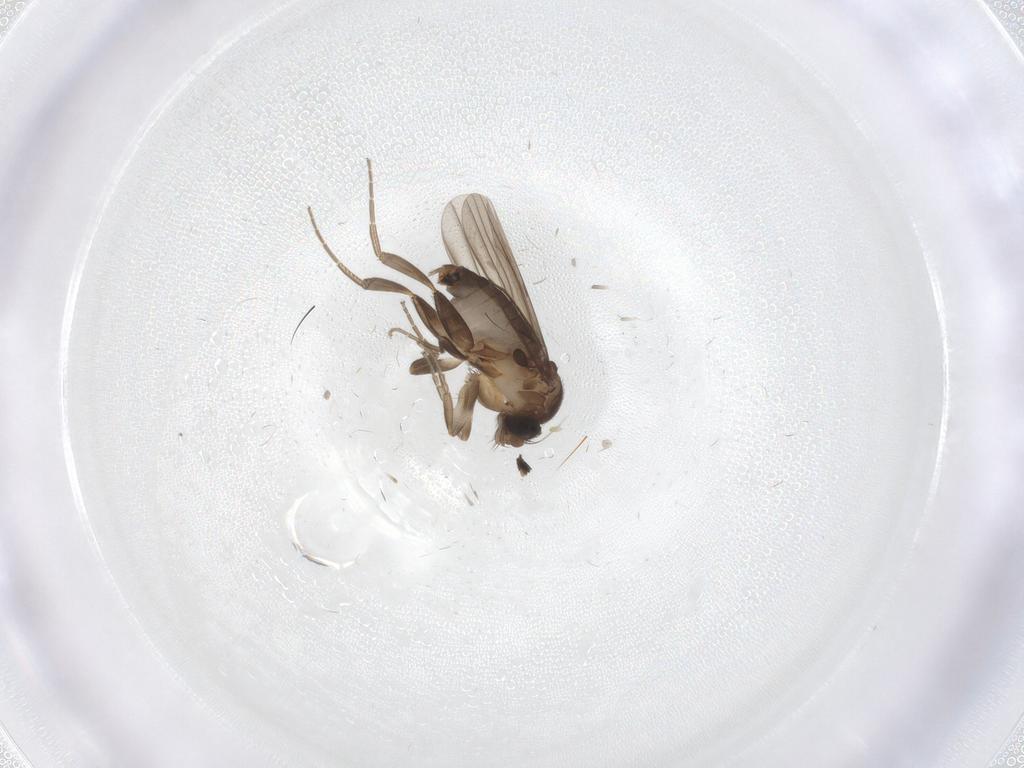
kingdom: Animalia
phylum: Arthropoda
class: Insecta
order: Diptera
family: Phoridae
